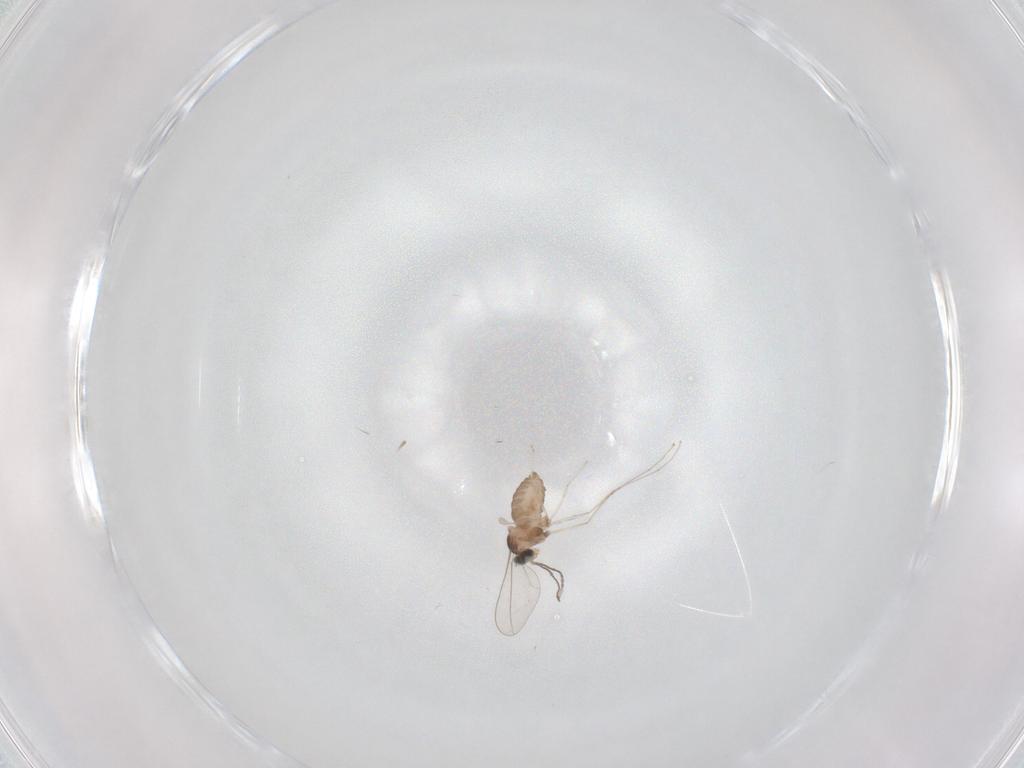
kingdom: Animalia
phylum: Arthropoda
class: Insecta
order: Diptera
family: Cecidomyiidae
